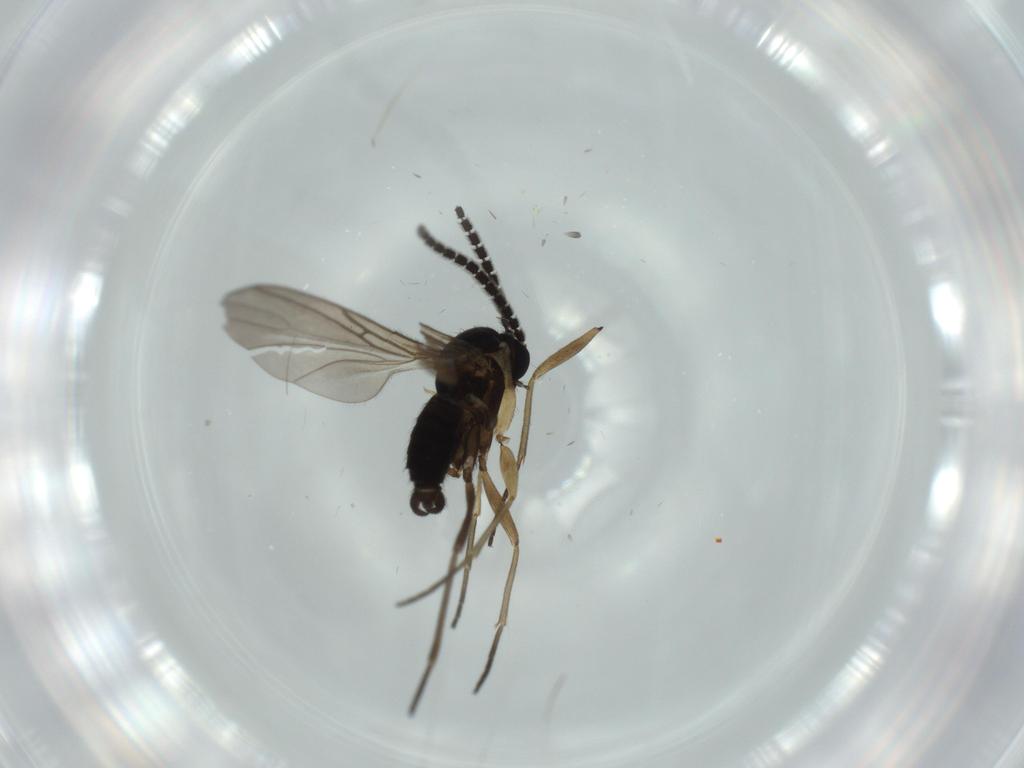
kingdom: Animalia
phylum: Arthropoda
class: Insecta
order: Diptera
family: Sciaridae
